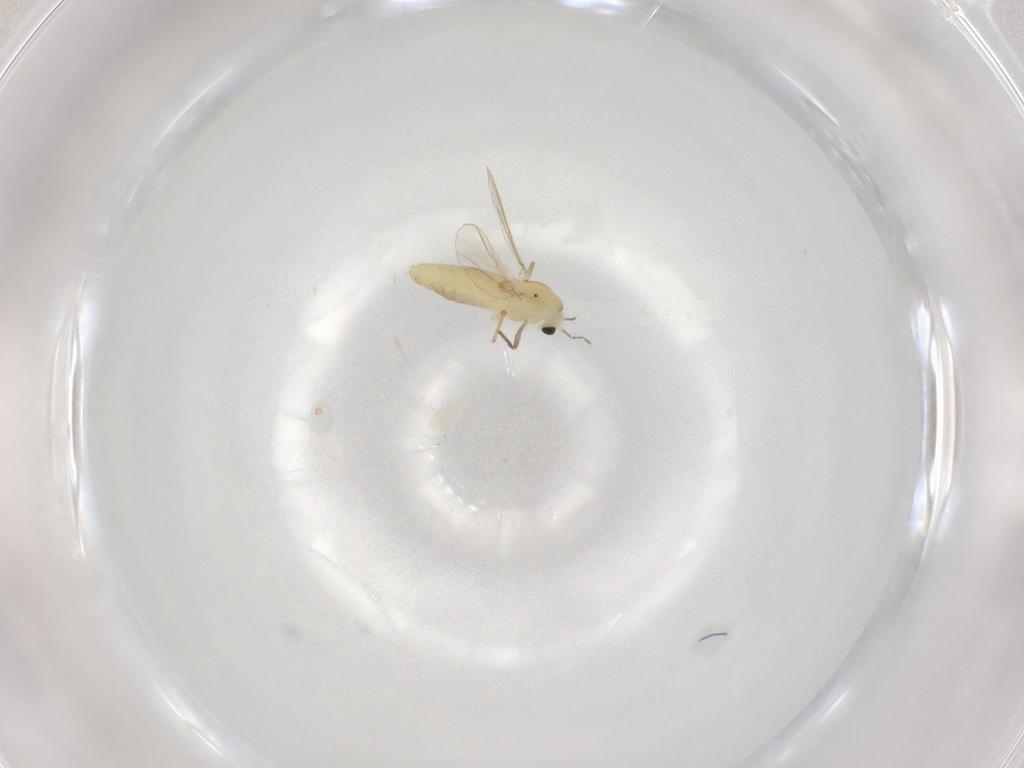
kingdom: Animalia
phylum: Arthropoda
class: Insecta
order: Diptera
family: Chironomidae
